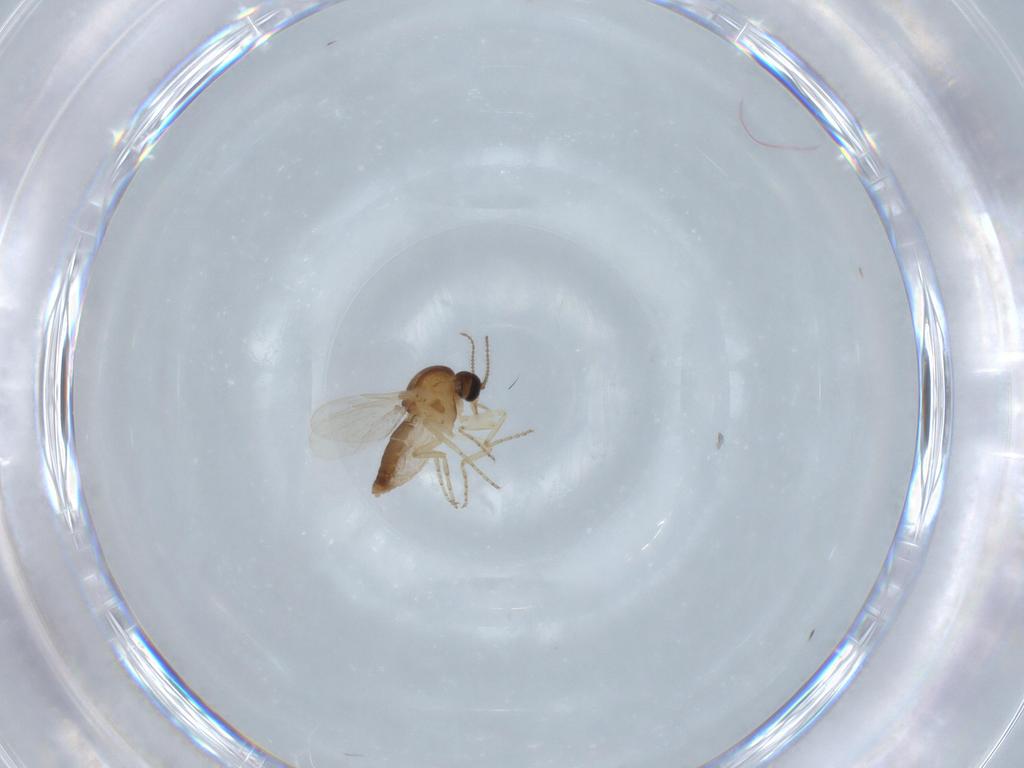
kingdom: Animalia
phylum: Arthropoda
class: Insecta
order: Diptera
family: Ceratopogonidae
